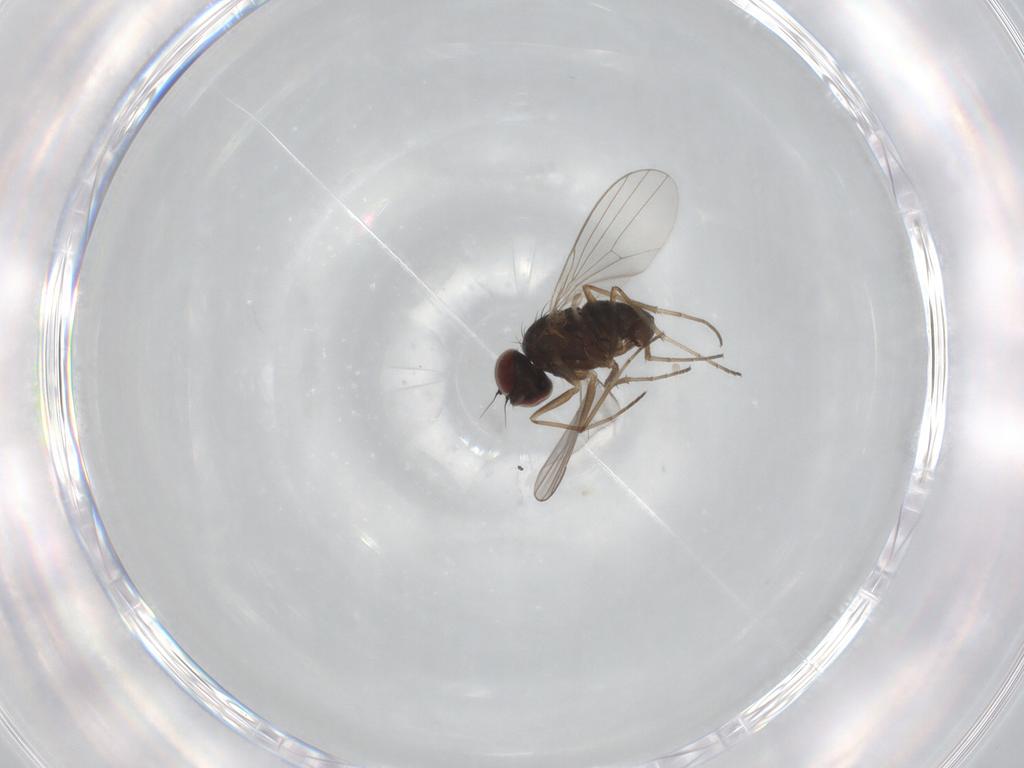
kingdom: Animalia
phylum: Arthropoda
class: Insecta
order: Diptera
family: Dolichopodidae
